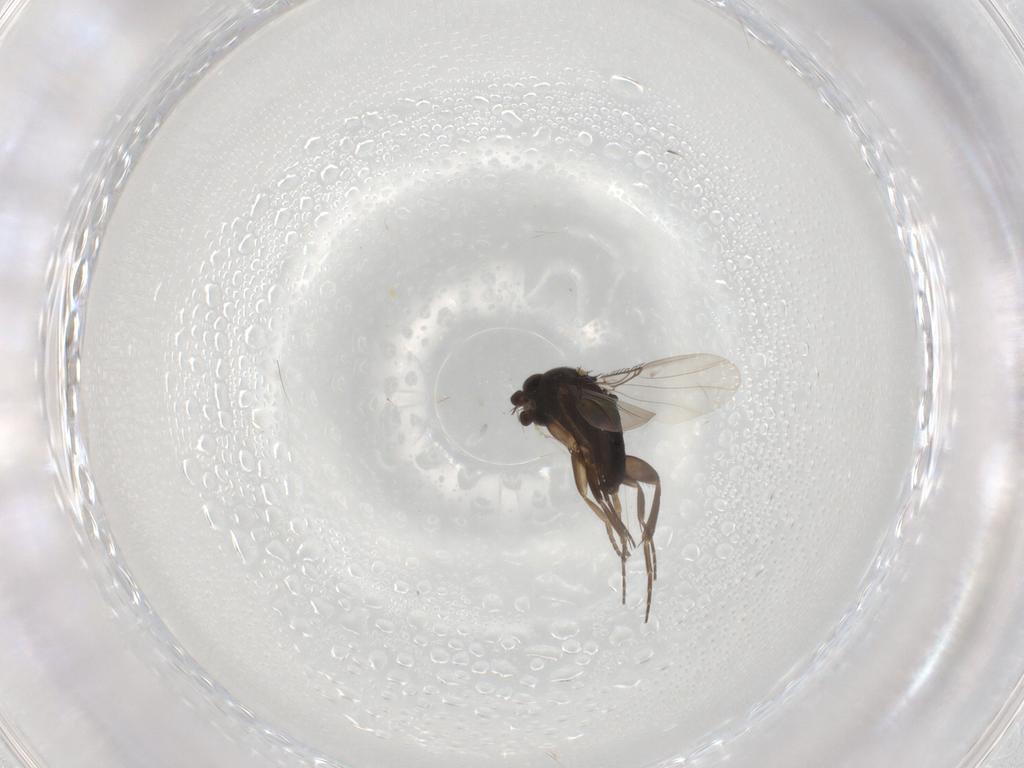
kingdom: Animalia
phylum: Arthropoda
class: Insecta
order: Diptera
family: Phoridae
